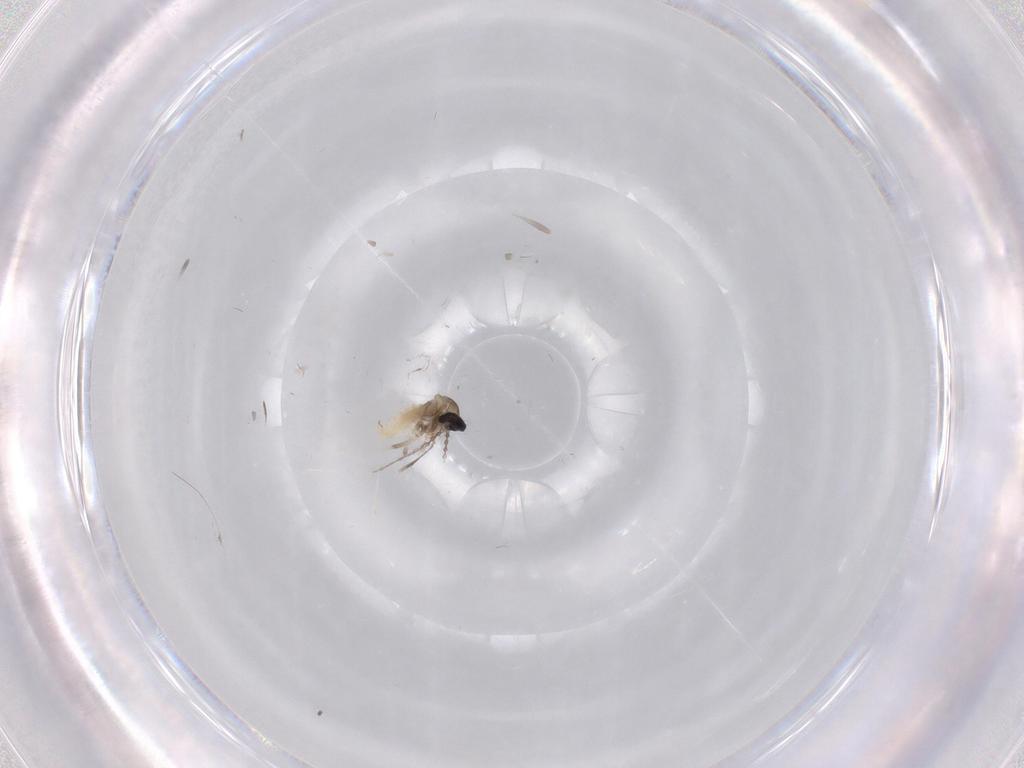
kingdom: Animalia
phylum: Arthropoda
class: Insecta
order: Diptera
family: Cecidomyiidae
